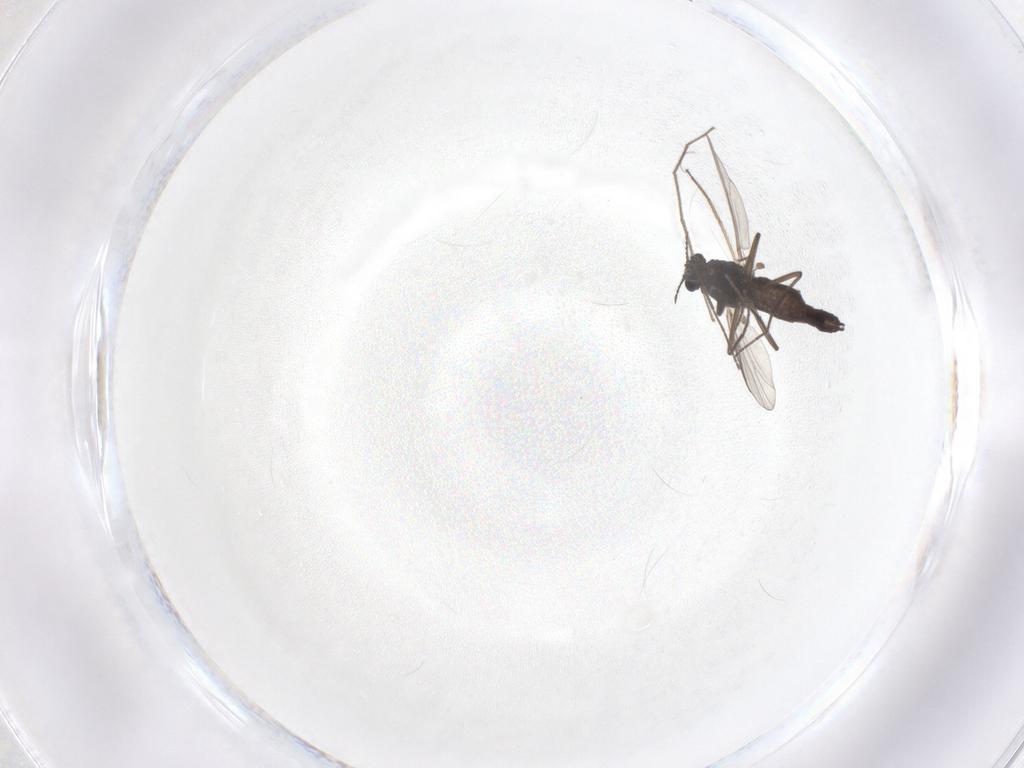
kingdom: Animalia
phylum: Arthropoda
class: Insecta
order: Diptera
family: Chironomidae
